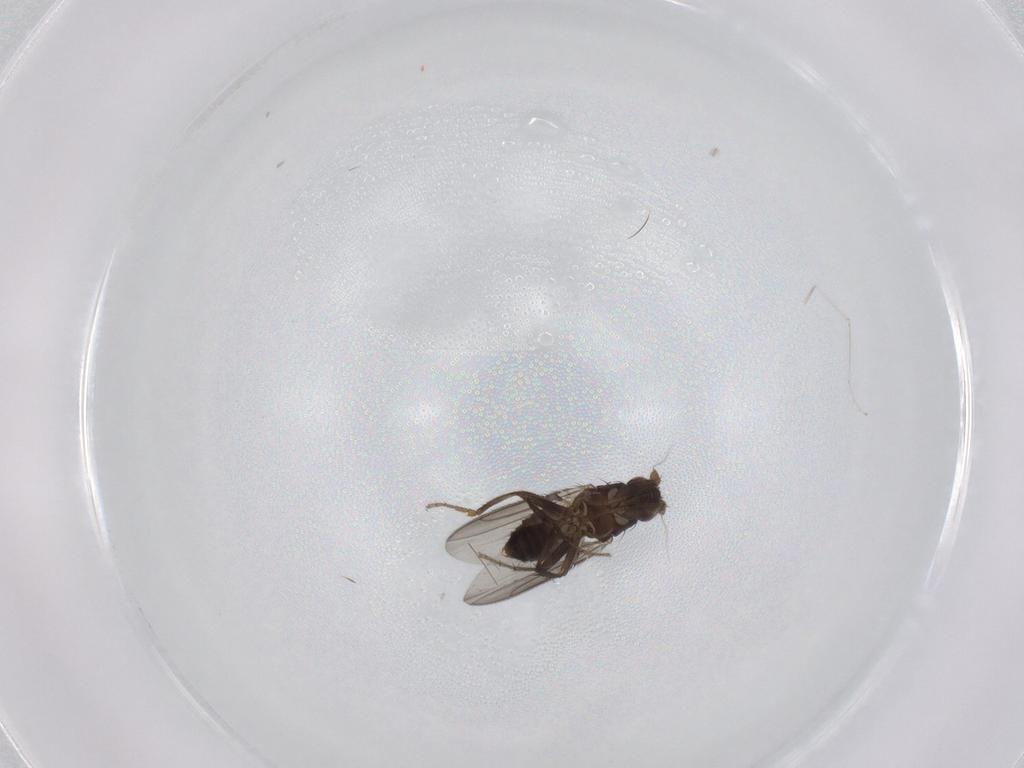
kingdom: Animalia
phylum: Arthropoda
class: Insecta
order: Diptera
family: Sphaeroceridae
